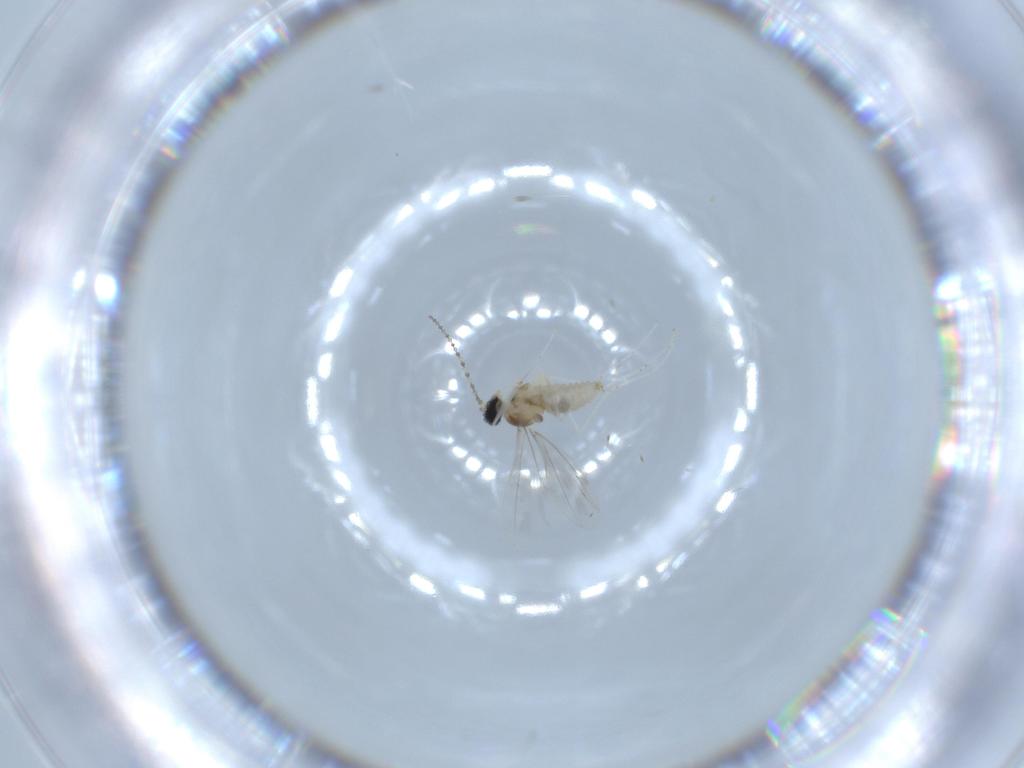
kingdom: Animalia
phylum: Arthropoda
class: Insecta
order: Diptera
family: Cecidomyiidae
